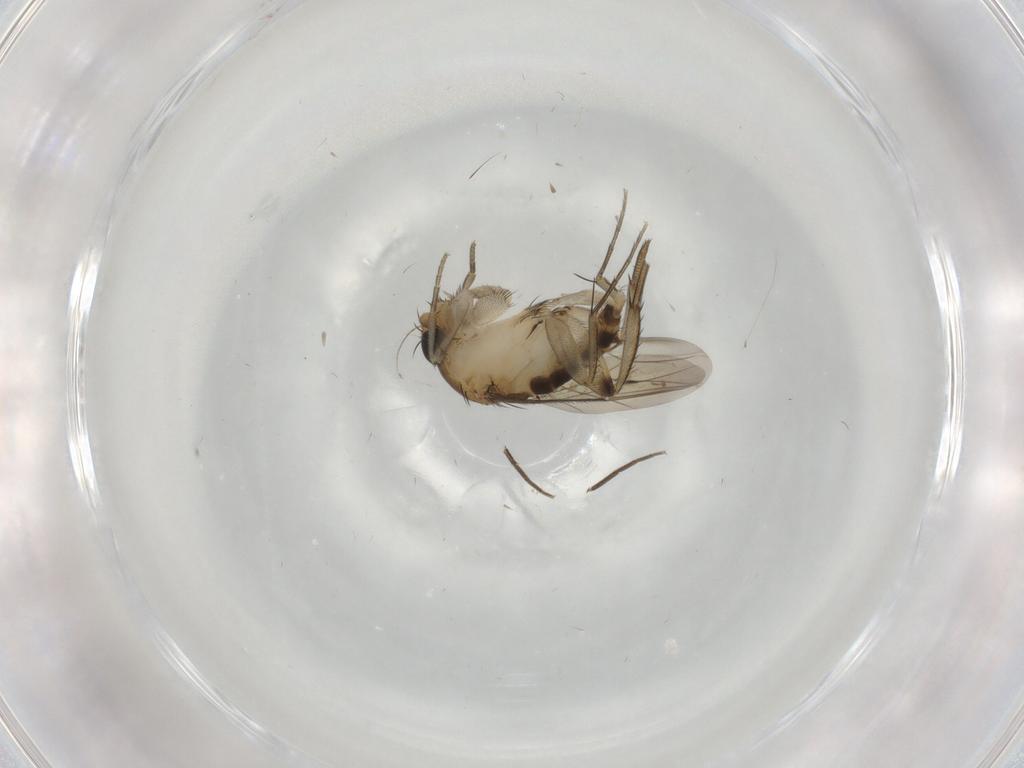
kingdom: Animalia
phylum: Arthropoda
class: Insecta
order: Diptera
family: Phoridae
